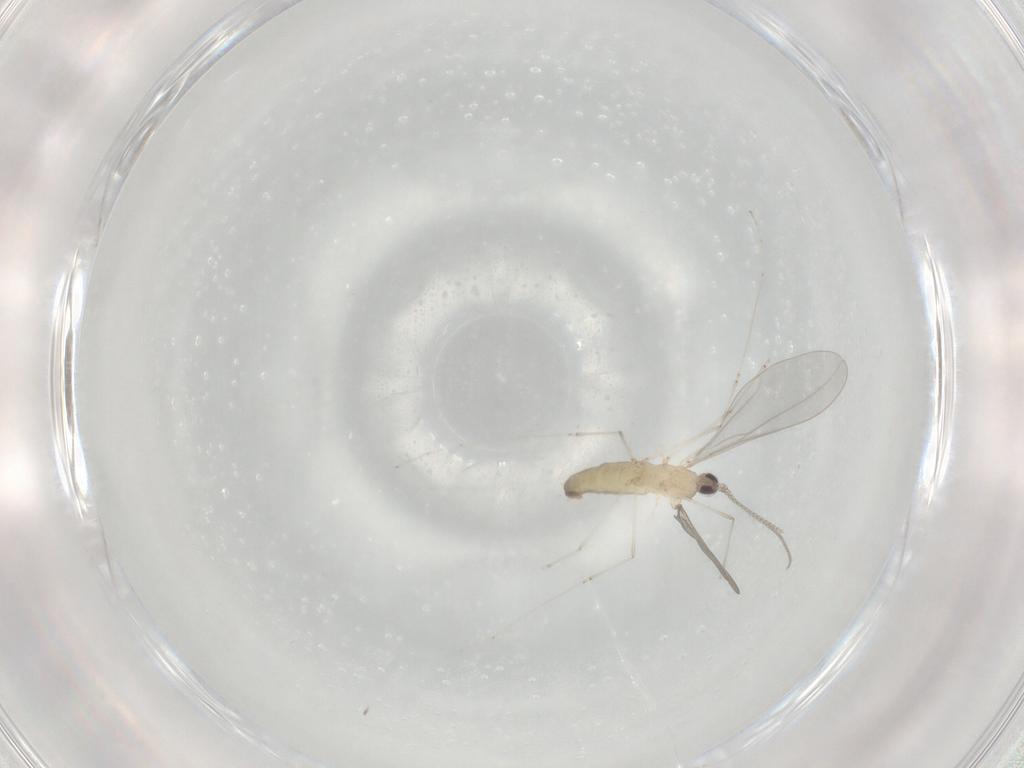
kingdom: Animalia
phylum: Arthropoda
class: Insecta
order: Diptera
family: Cecidomyiidae
